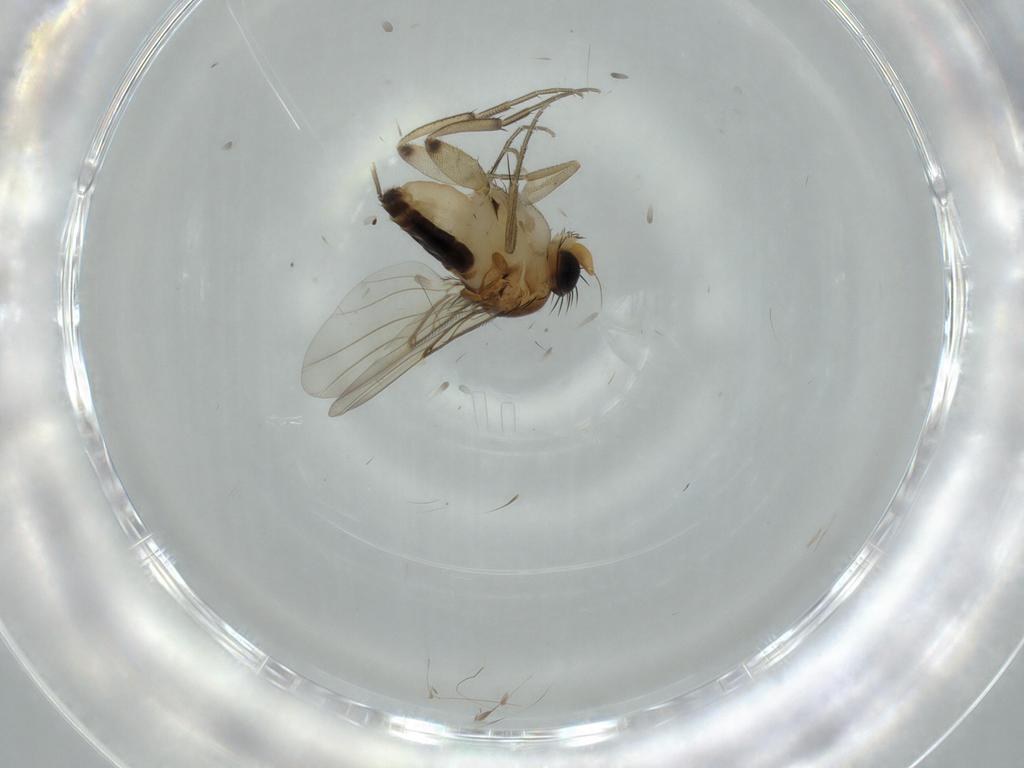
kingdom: Animalia
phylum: Arthropoda
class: Insecta
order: Diptera
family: Phoridae
